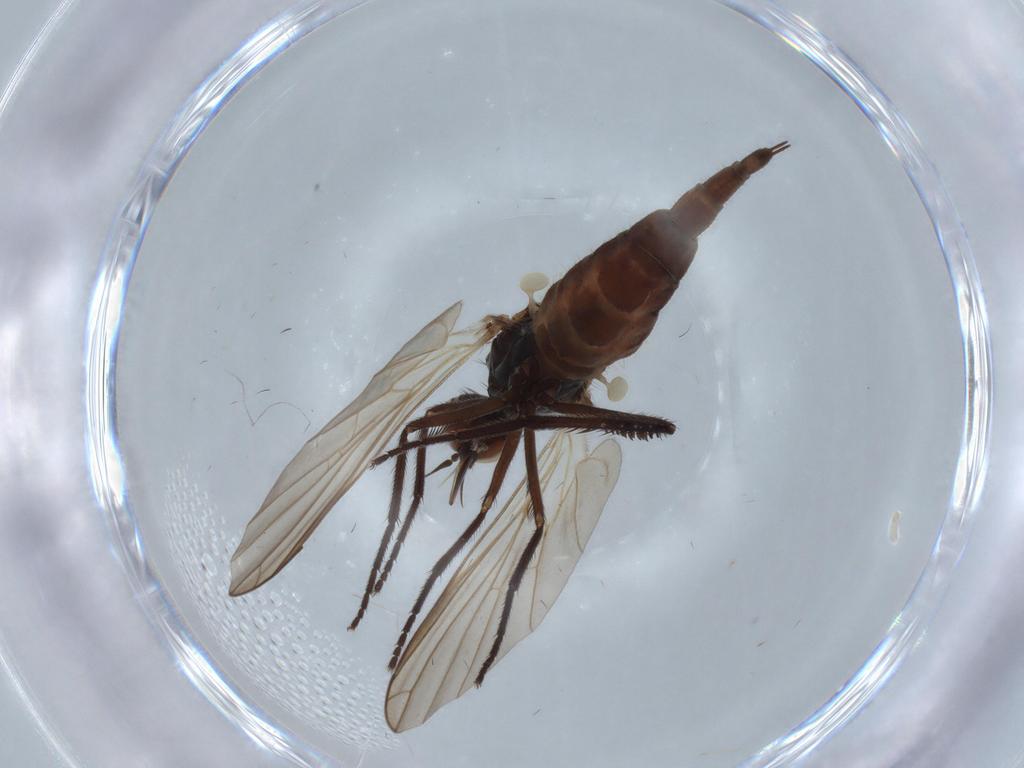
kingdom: Animalia
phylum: Arthropoda
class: Insecta
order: Diptera
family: Empididae
